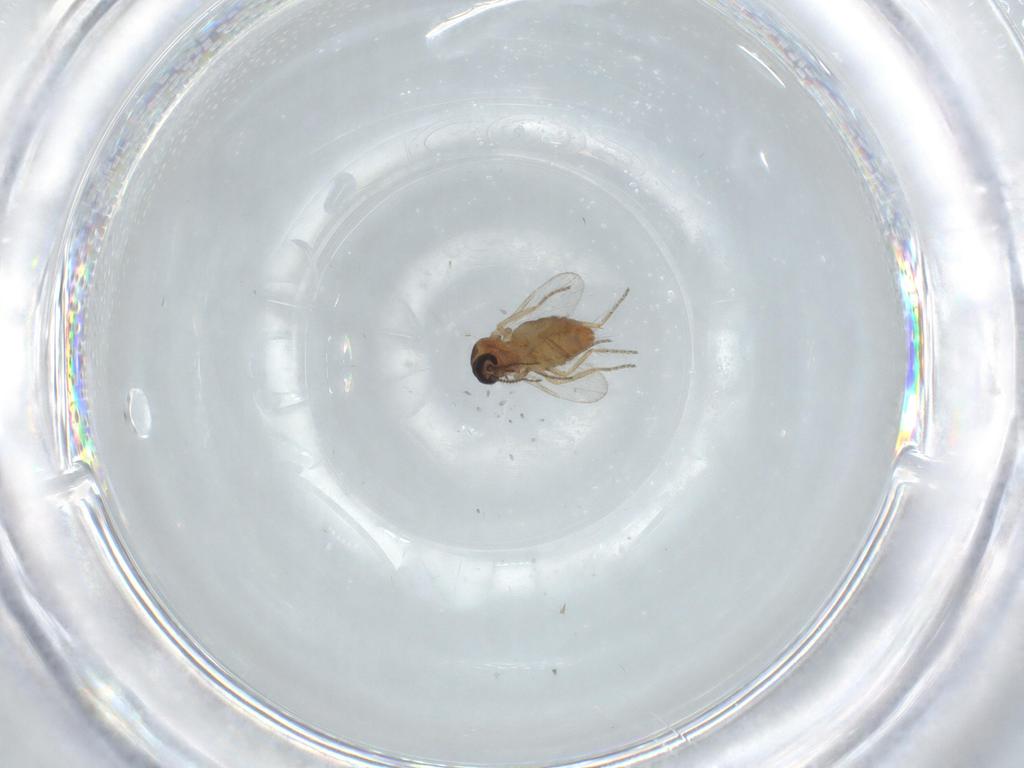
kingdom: Animalia
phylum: Arthropoda
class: Insecta
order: Diptera
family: Ceratopogonidae
